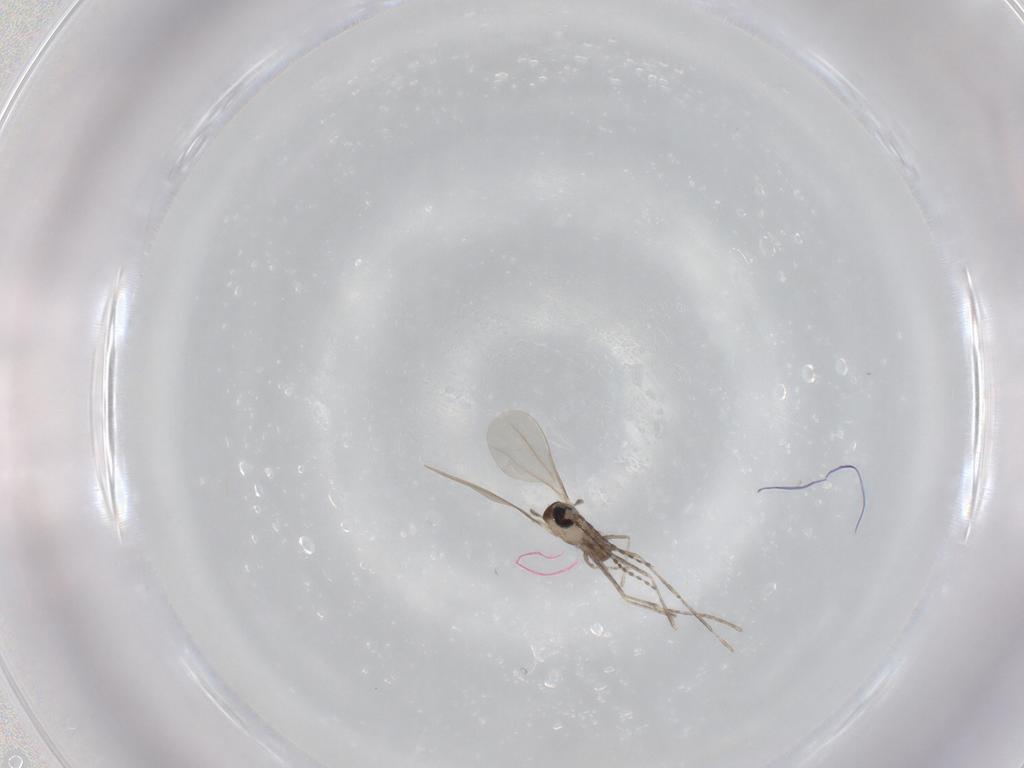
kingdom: Animalia
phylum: Arthropoda
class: Insecta
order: Diptera
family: Cecidomyiidae
